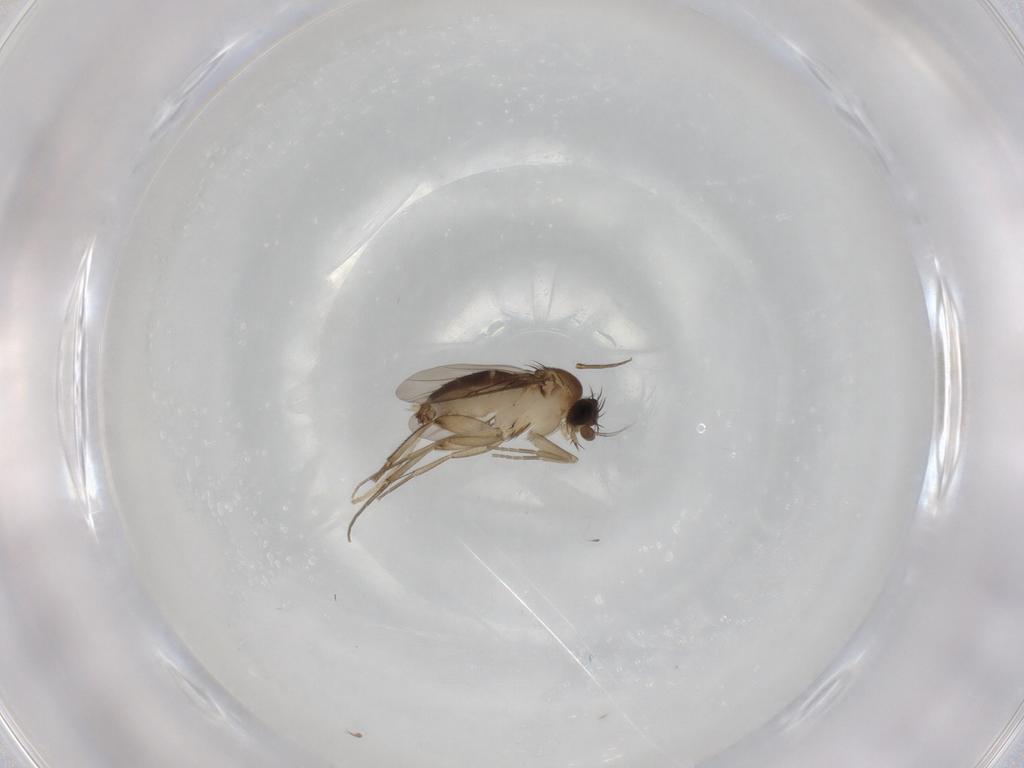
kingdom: Animalia
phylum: Arthropoda
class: Insecta
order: Diptera
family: Phoridae
